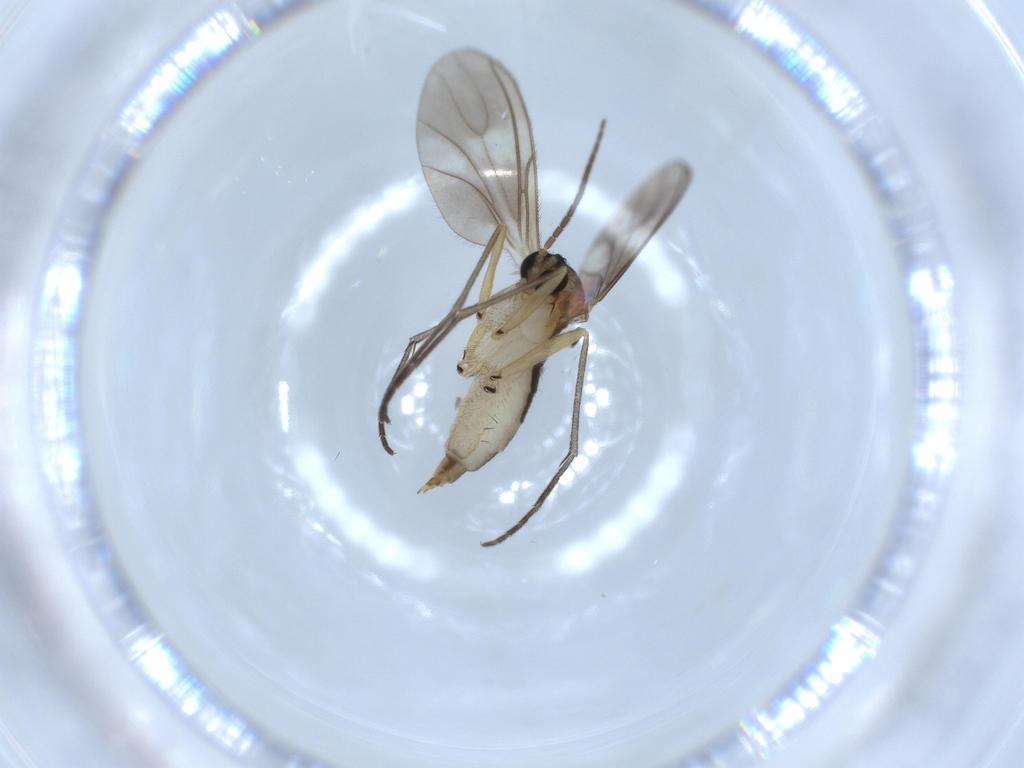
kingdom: Animalia
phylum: Arthropoda
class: Insecta
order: Diptera
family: Sciaridae
